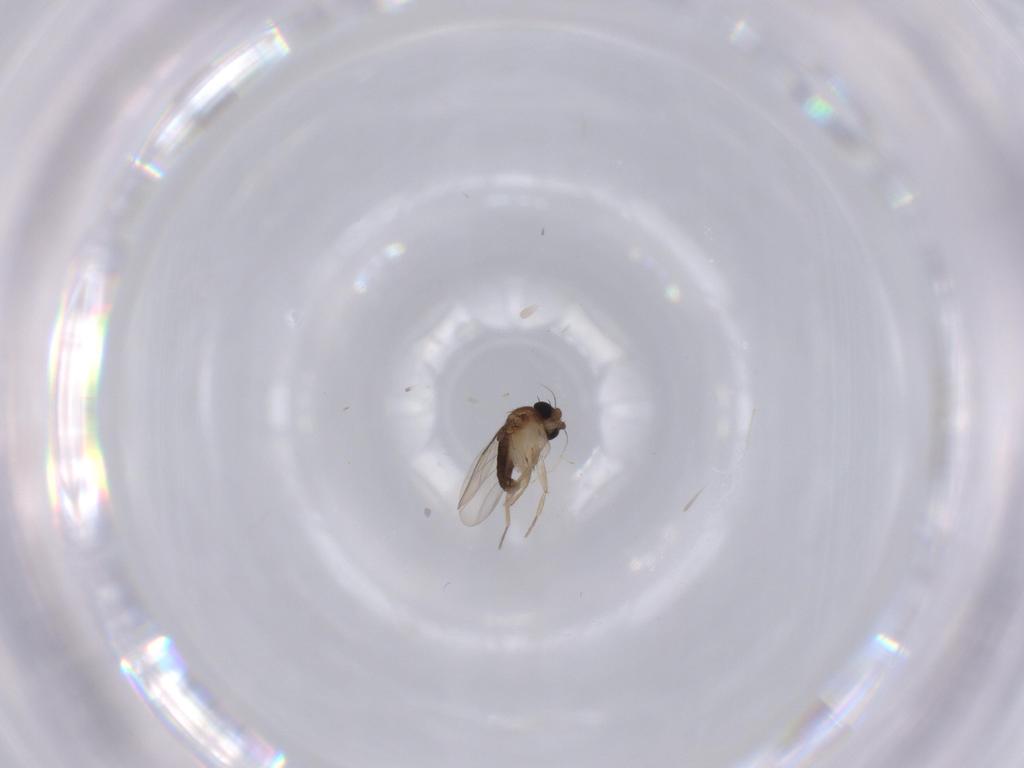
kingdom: Animalia
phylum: Arthropoda
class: Insecta
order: Diptera
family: Phoridae
